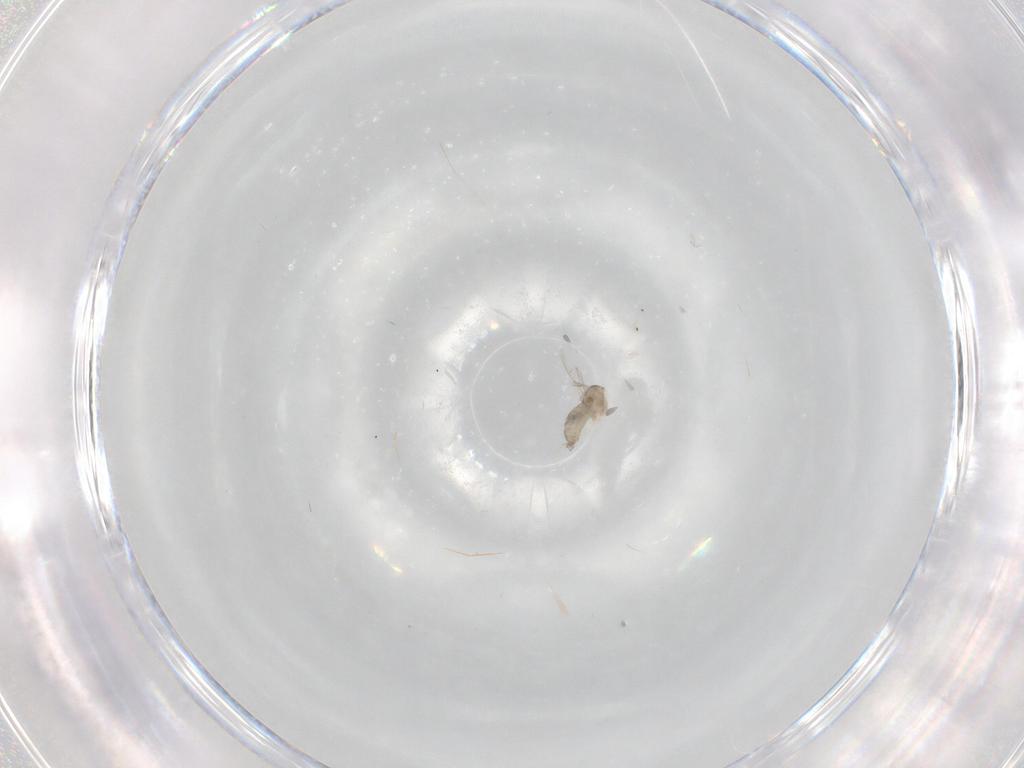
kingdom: Animalia
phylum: Arthropoda
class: Insecta
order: Diptera
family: Cecidomyiidae
